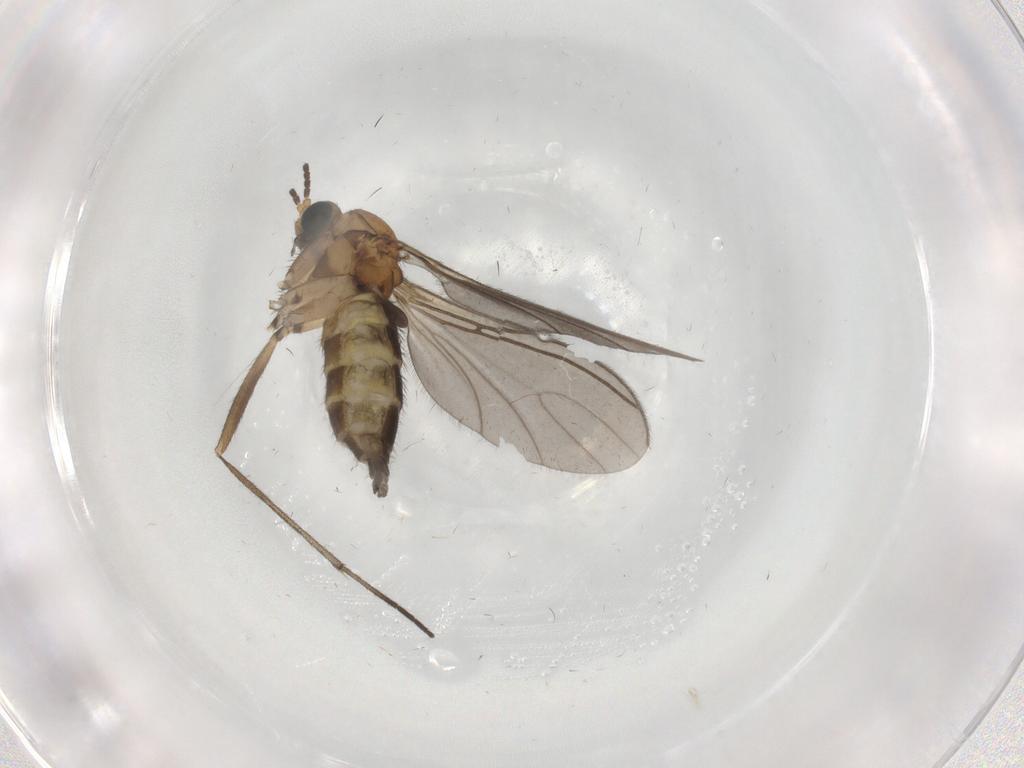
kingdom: Animalia
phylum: Arthropoda
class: Insecta
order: Diptera
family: Sciaridae
